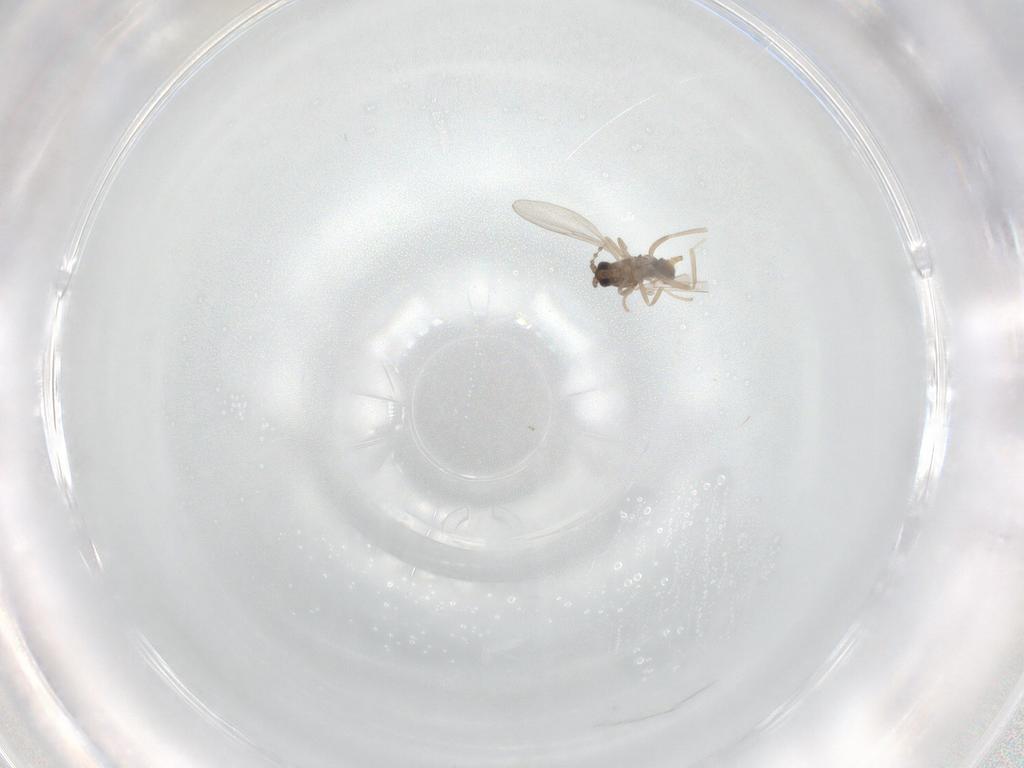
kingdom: Animalia
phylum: Arthropoda
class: Insecta
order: Diptera
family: Cecidomyiidae
